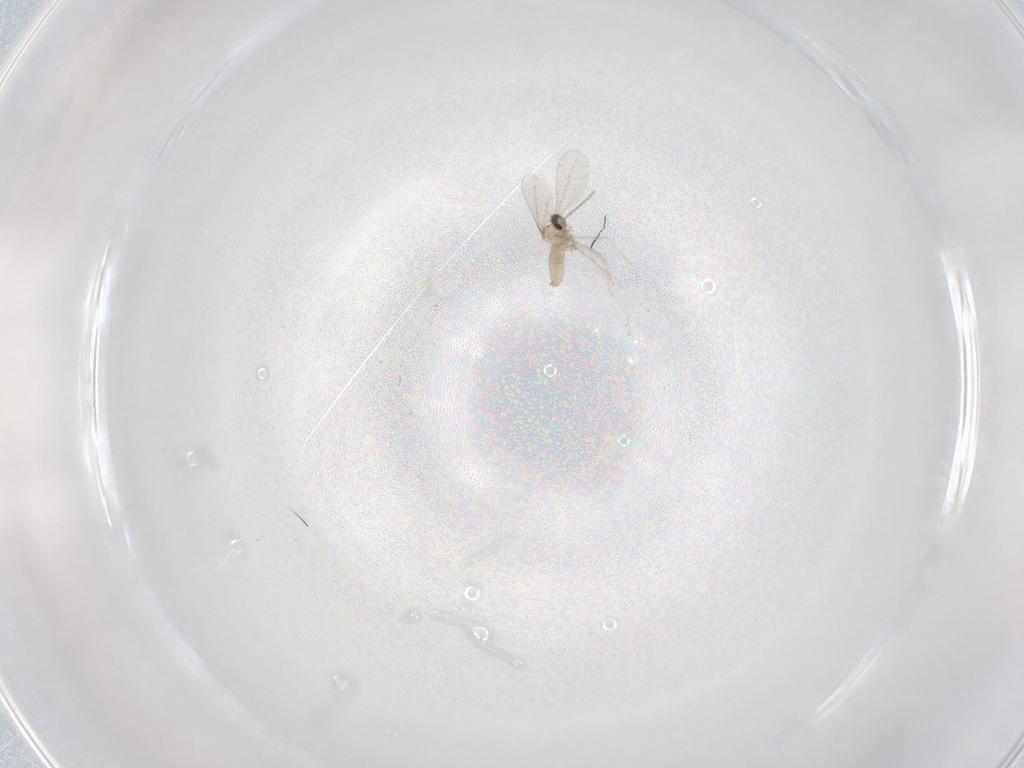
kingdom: Animalia
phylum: Arthropoda
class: Insecta
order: Diptera
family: Cecidomyiidae
